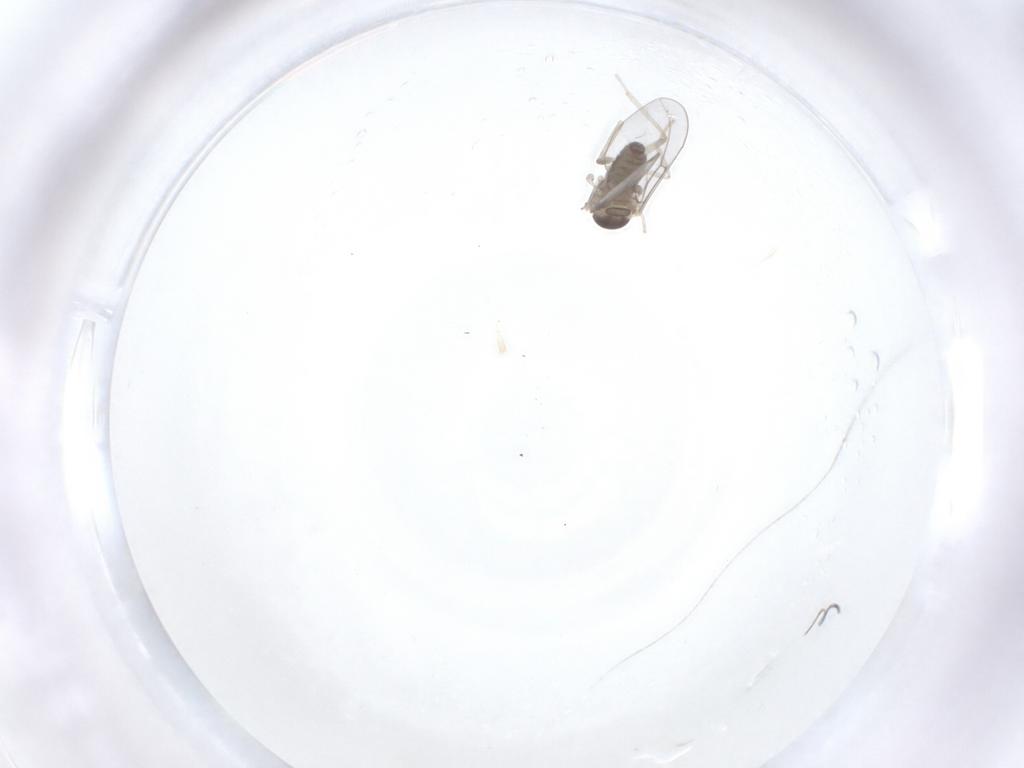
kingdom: Animalia
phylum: Arthropoda
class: Insecta
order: Diptera
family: Cecidomyiidae
